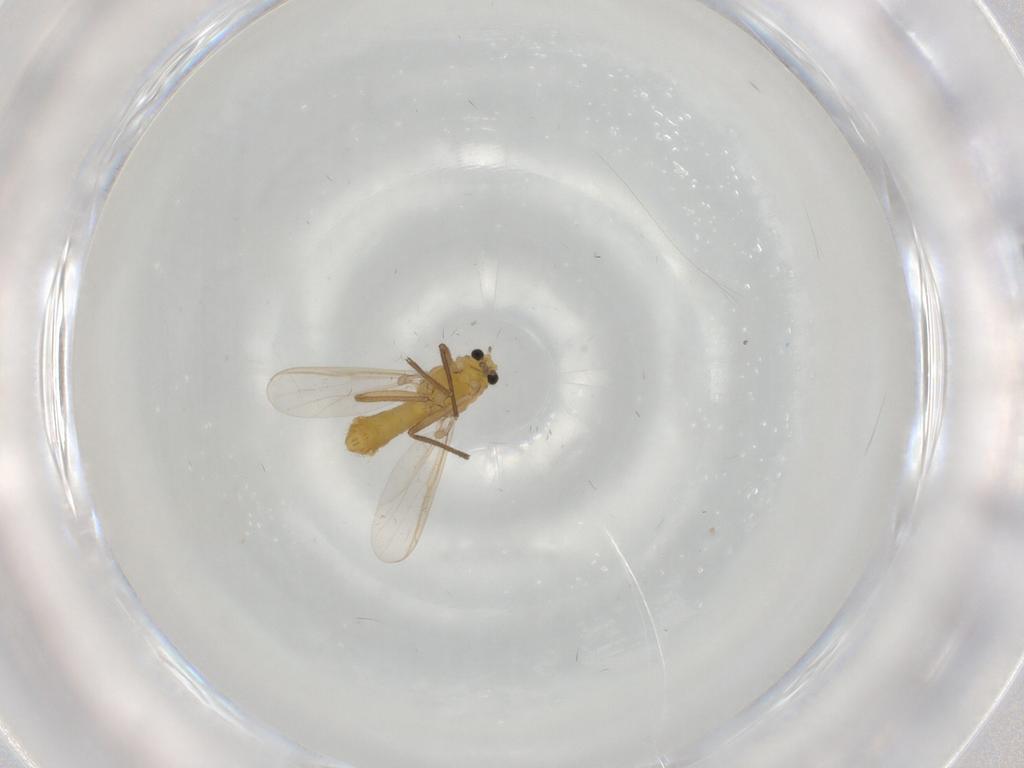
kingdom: Animalia
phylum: Arthropoda
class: Insecta
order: Diptera
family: Chironomidae
